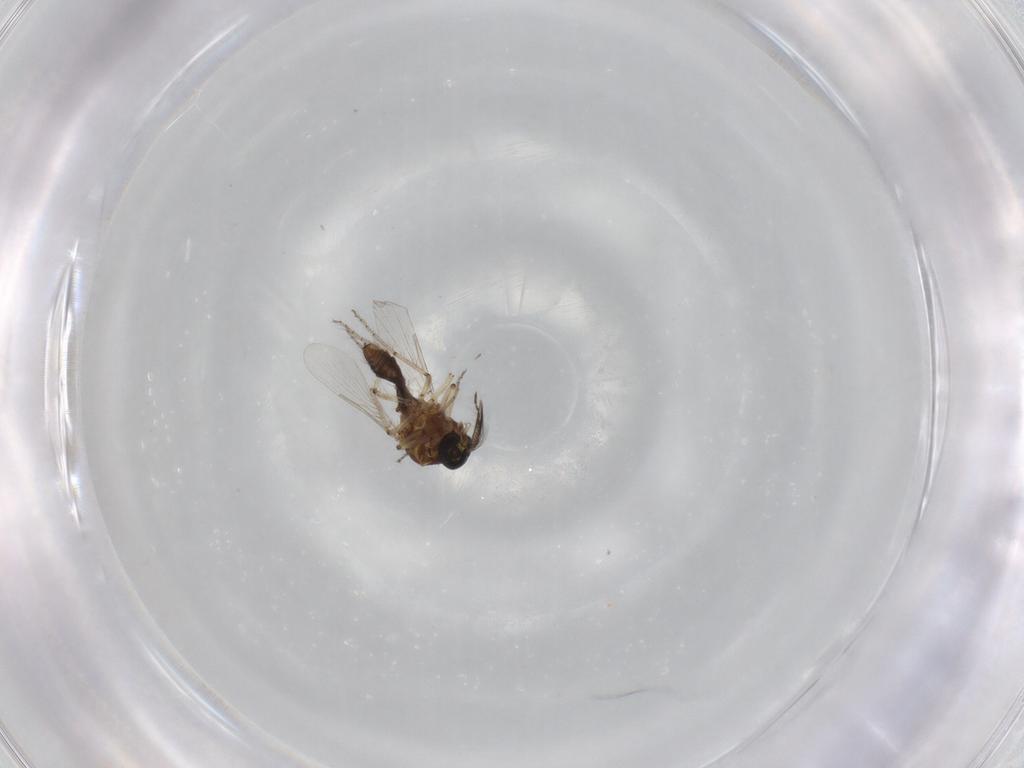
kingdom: Animalia
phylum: Arthropoda
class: Insecta
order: Diptera
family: Ceratopogonidae
